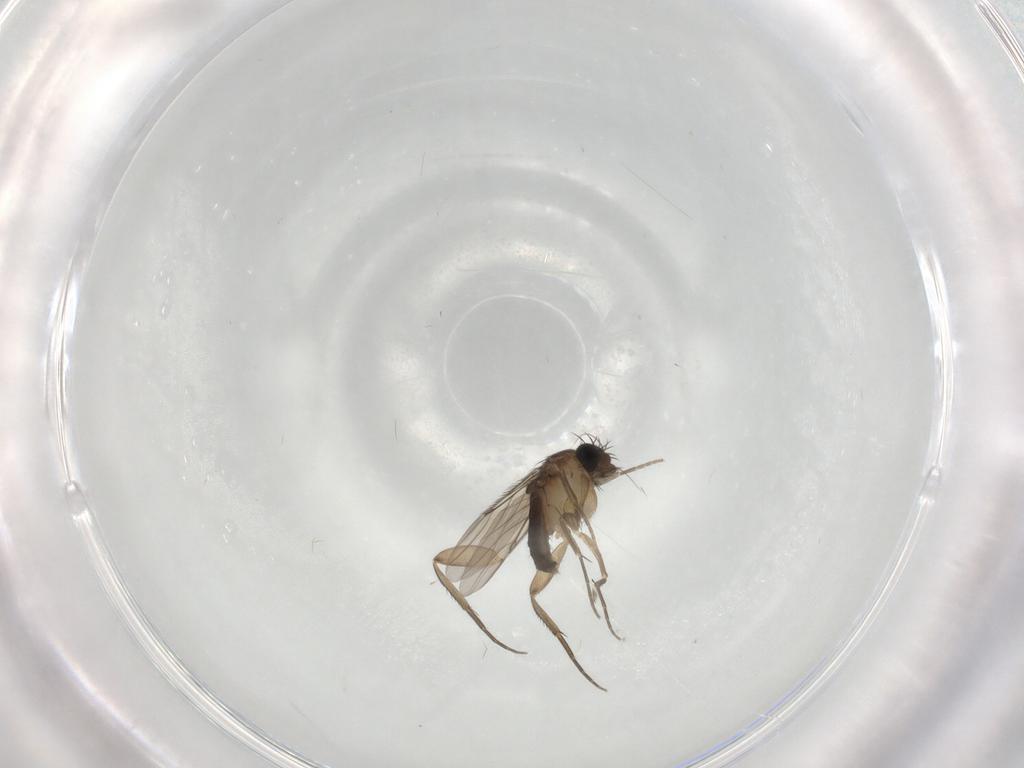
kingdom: Animalia
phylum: Arthropoda
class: Insecta
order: Diptera
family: Phoridae
